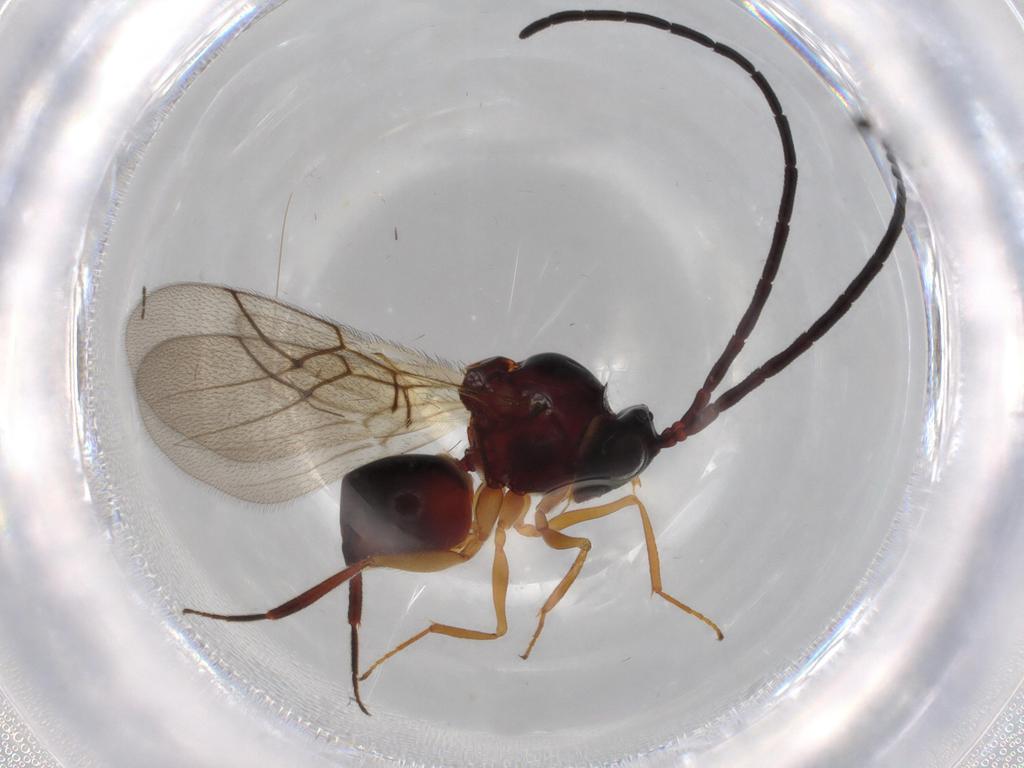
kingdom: Animalia
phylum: Arthropoda
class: Insecta
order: Hymenoptera
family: Figitidae
